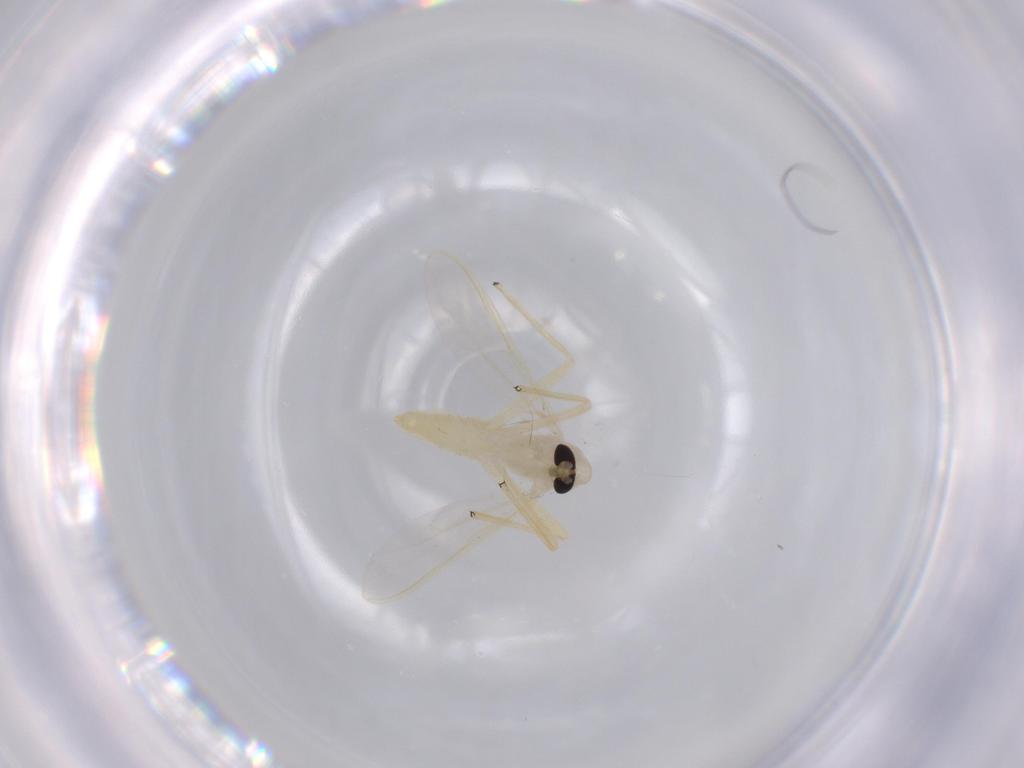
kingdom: Animalia
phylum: Arthropoda
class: Insecta
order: Diptera
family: Chironomidae
